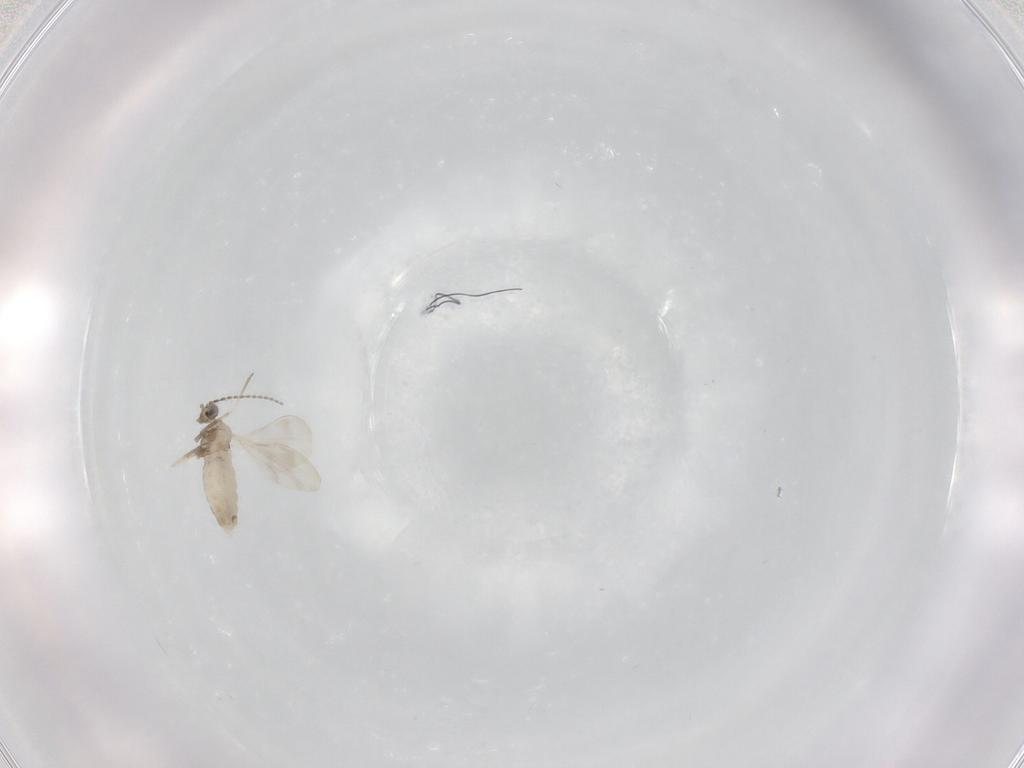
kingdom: Animalia
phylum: Arthropoda
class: Insecta
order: Diptera
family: Cecidomyiidae
